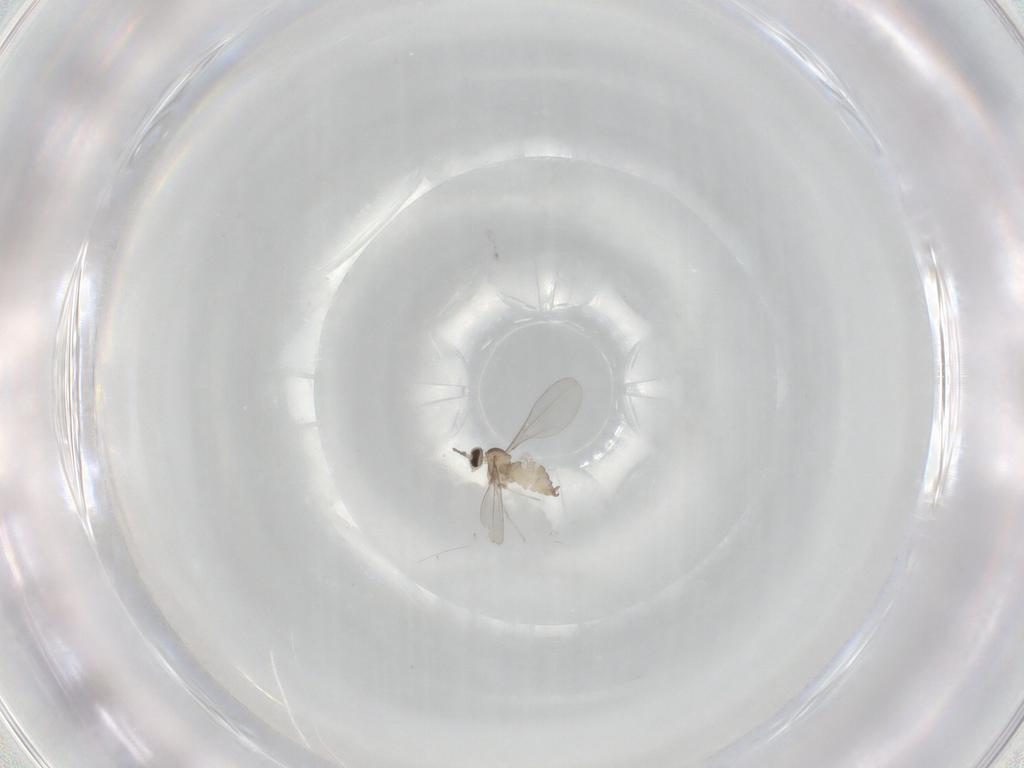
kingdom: Animalia
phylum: Arthropoda
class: Insecta
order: Diptera
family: Cecidomyiidae
